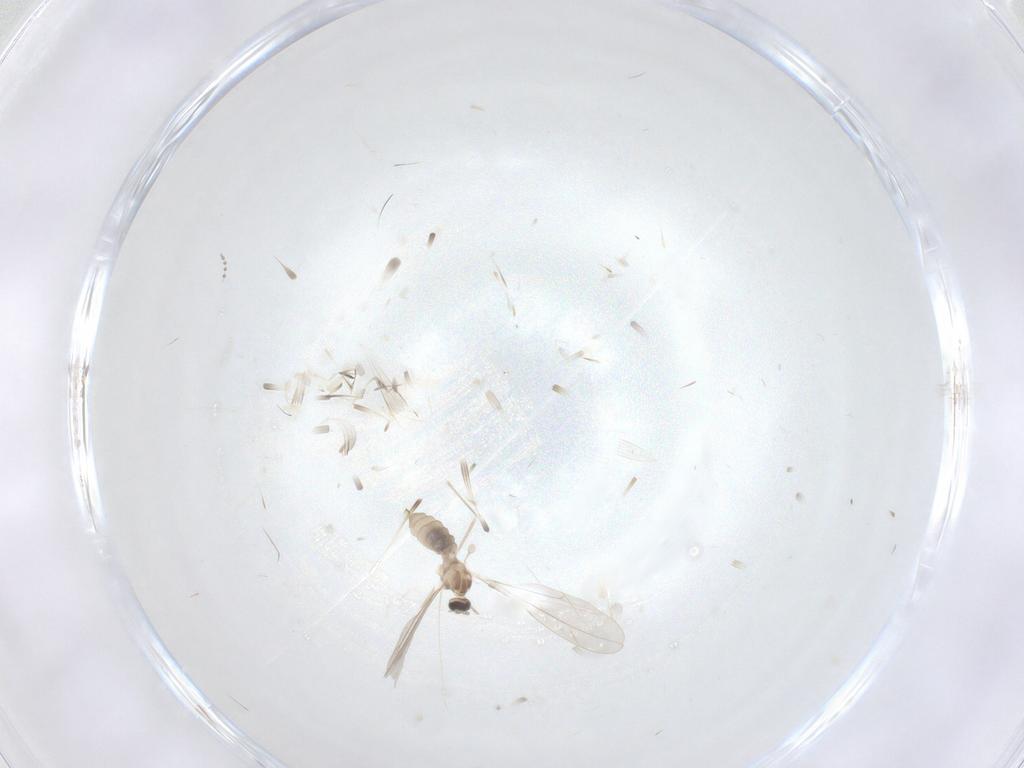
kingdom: Animalia
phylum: Arthropoda
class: Insecta
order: Diptera
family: Cecidomyiidae
